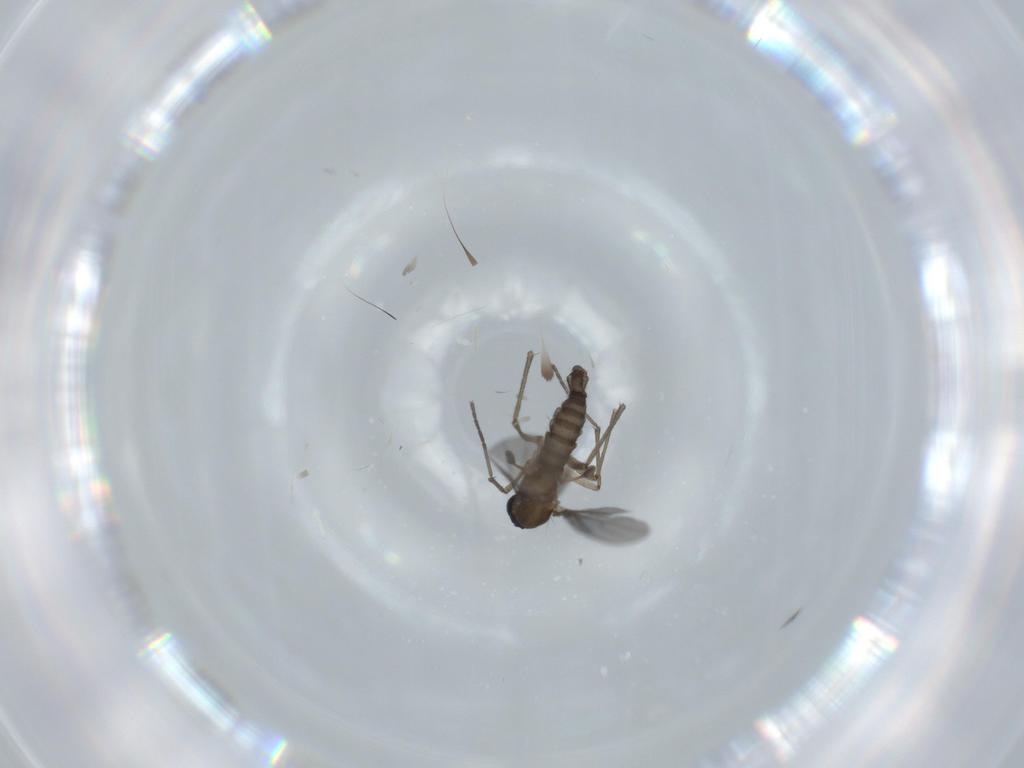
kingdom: Animalia
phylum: Arthropoda
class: Insecta
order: Diptera
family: Sciaridae
